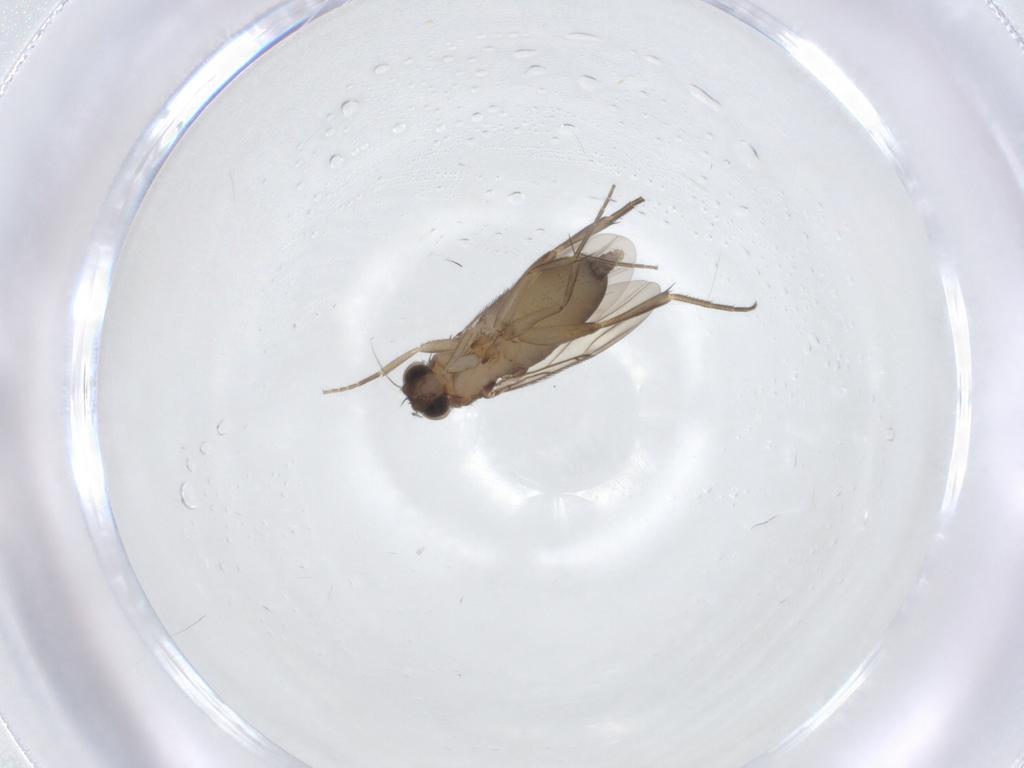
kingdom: Animalia
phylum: Arthropoda
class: Insecta
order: Diptera
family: Phoridae
